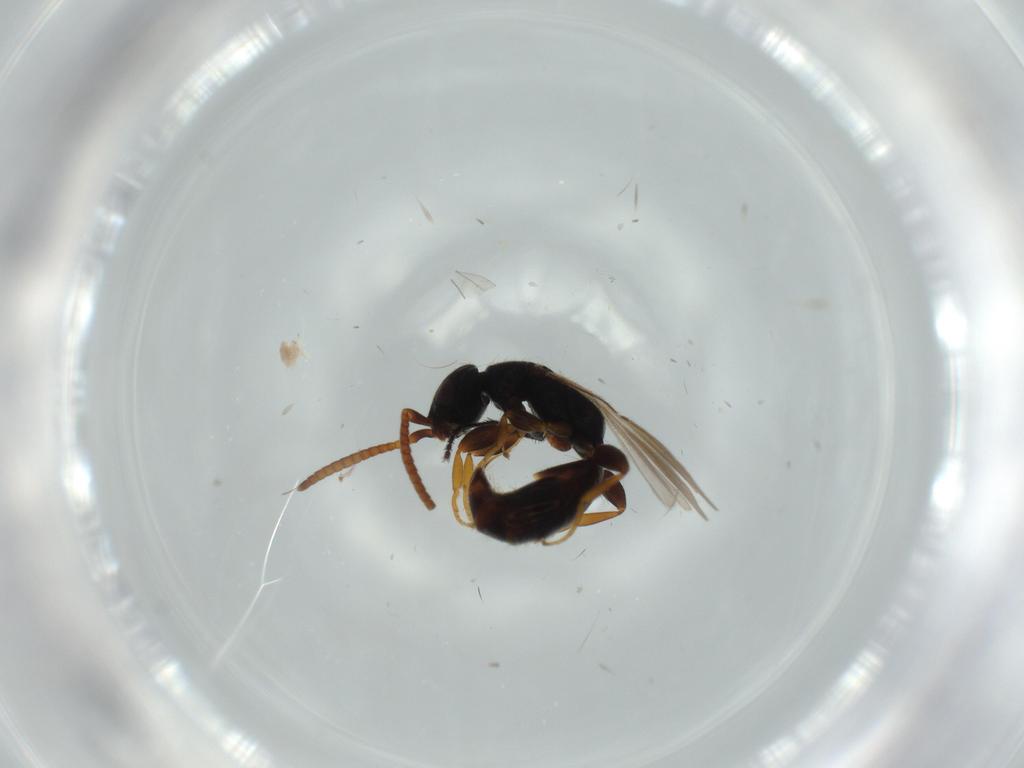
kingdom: Animalia
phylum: Arthropoda
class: Insecta
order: Hymenoptera
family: Bethylidae
